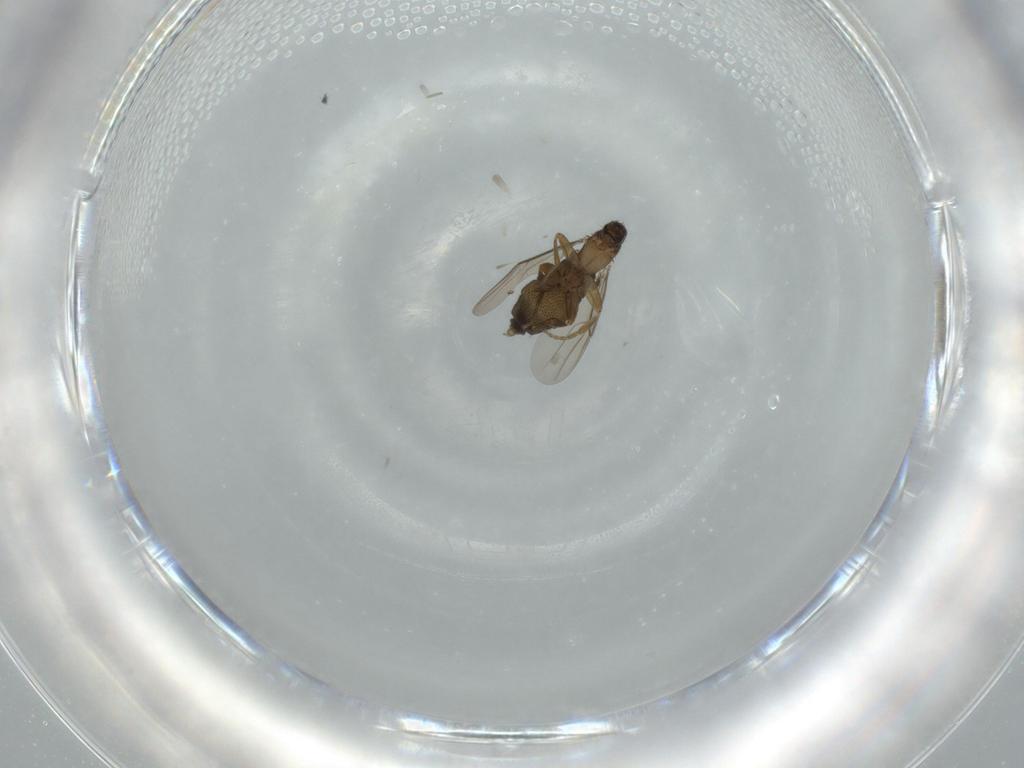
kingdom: Animalia
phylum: Arthropoda
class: Insecta
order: Diptera
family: Phoridae
